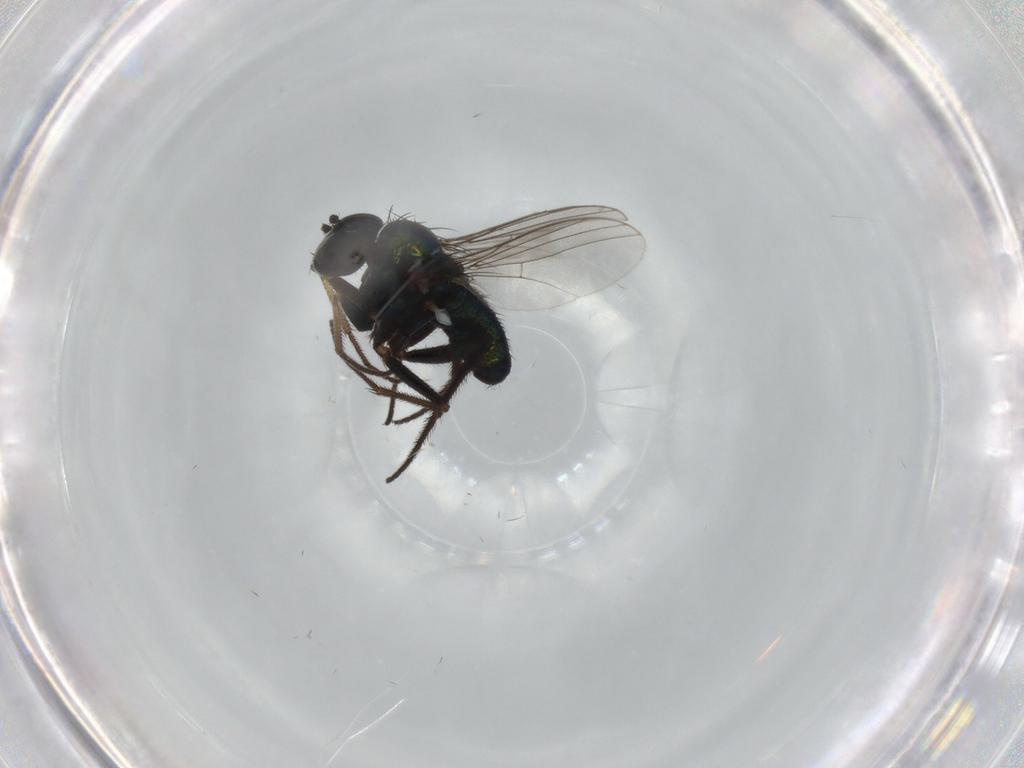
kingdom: Animalia
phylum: Arthropoda
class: Insecta
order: Diptera
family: Dolichopodidae
